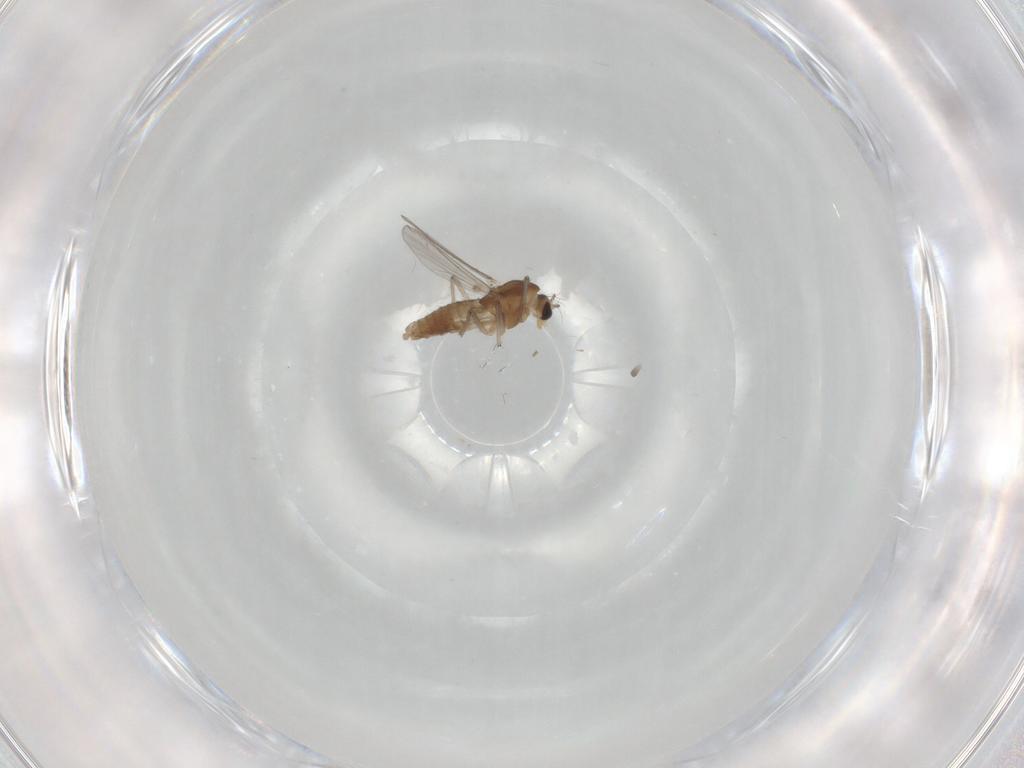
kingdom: Animalia
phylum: Arthropoda
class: Insecta
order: Diptera
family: Chironomidae
